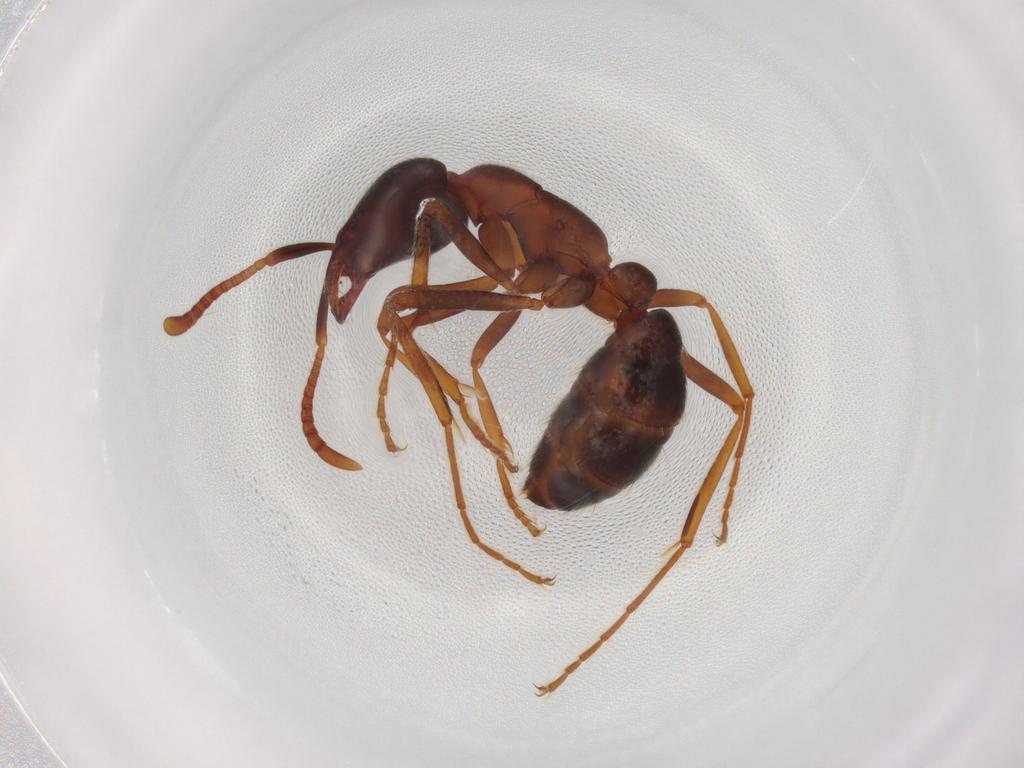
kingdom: Animalia
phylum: Arthropoda
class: Insecta
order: Hymenoptera
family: Formicidae
